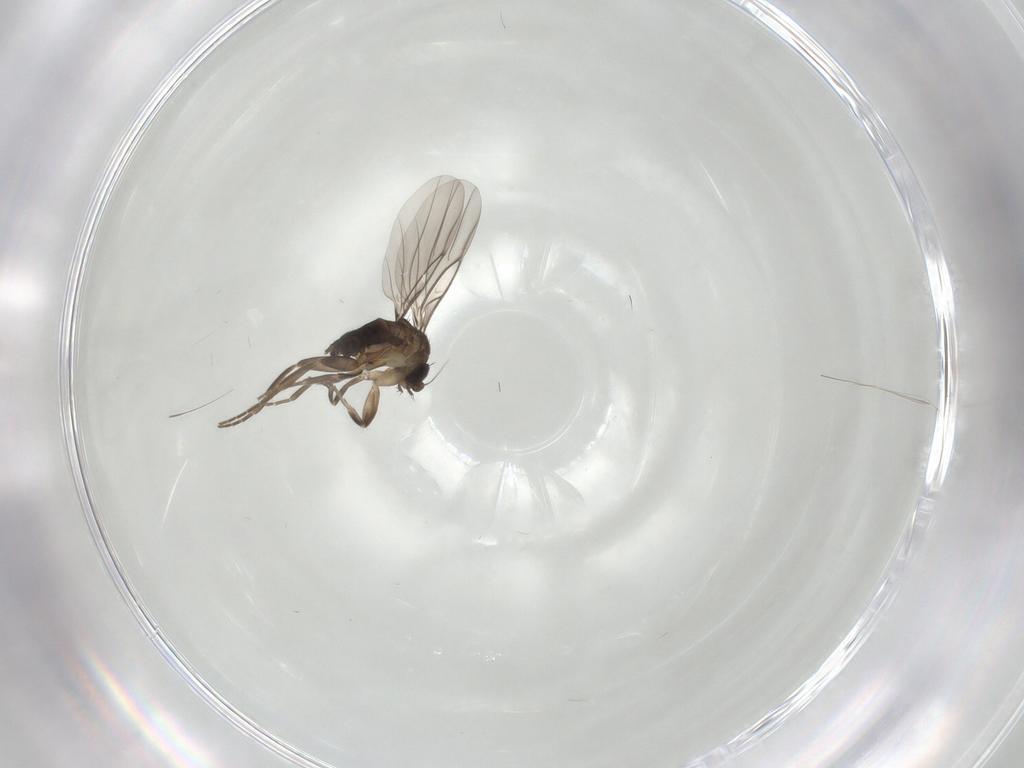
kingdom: Animalia
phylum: Arthropoda
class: Insecta
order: Diptera
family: Phoridae
